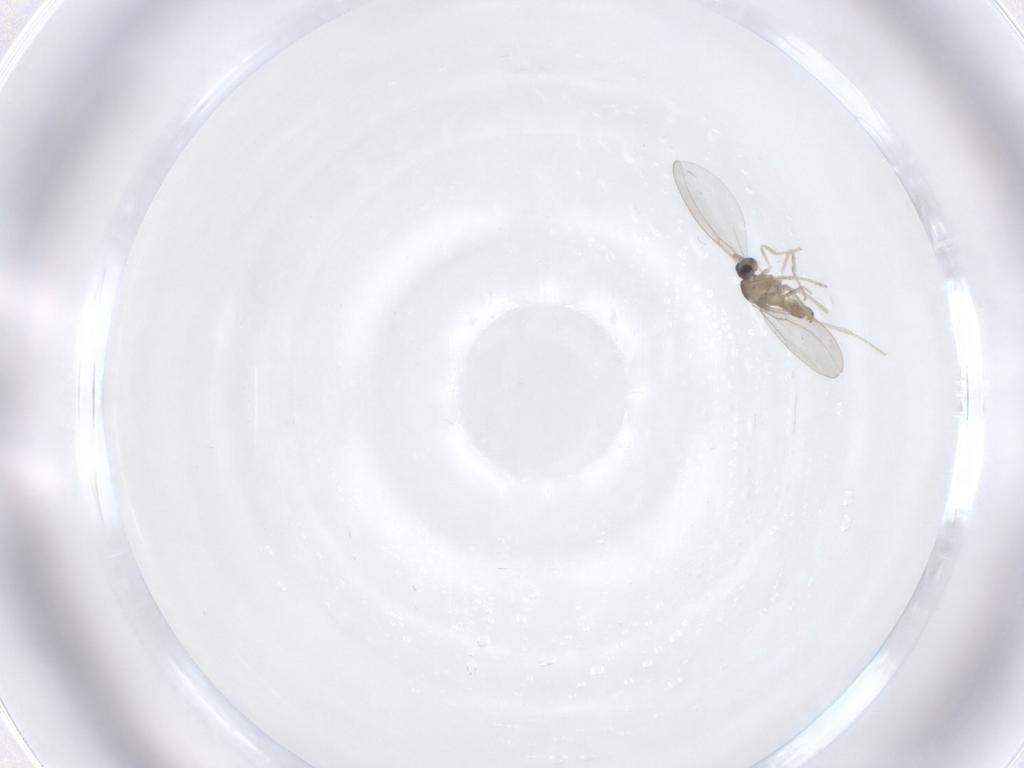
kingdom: Animalia
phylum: Arthropoda
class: Insecta
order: Diptera
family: Cecidomyiidae
